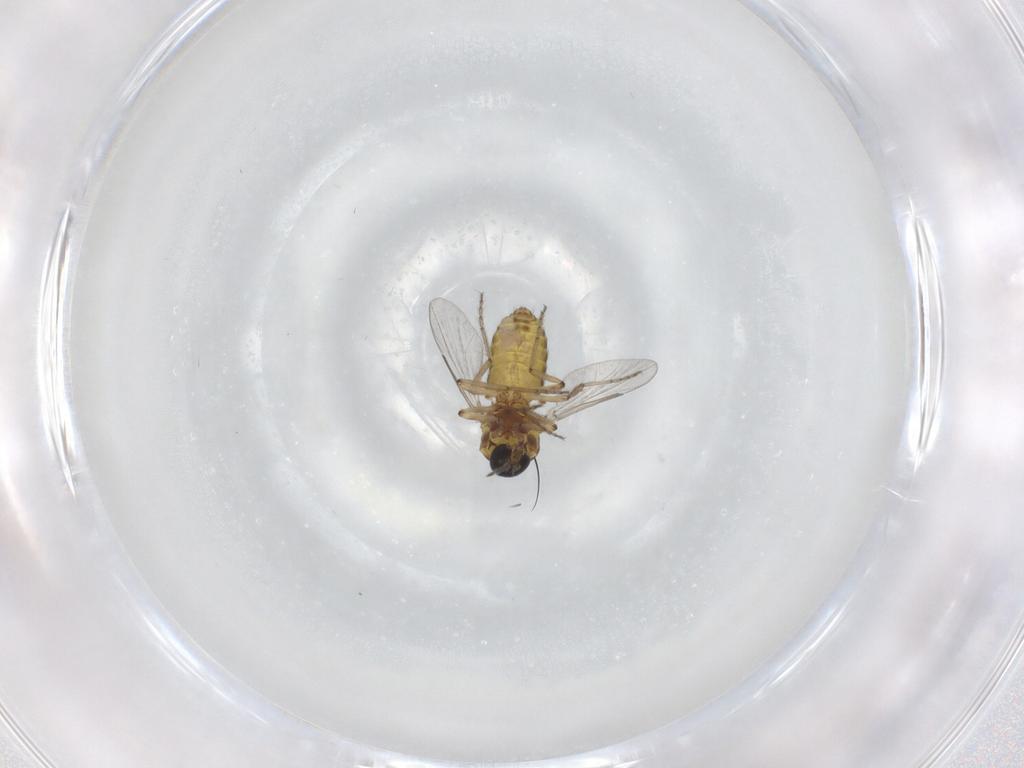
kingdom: Animalia
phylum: Arthropoda
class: Insecta
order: Diptera
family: Ceratopogonidae
